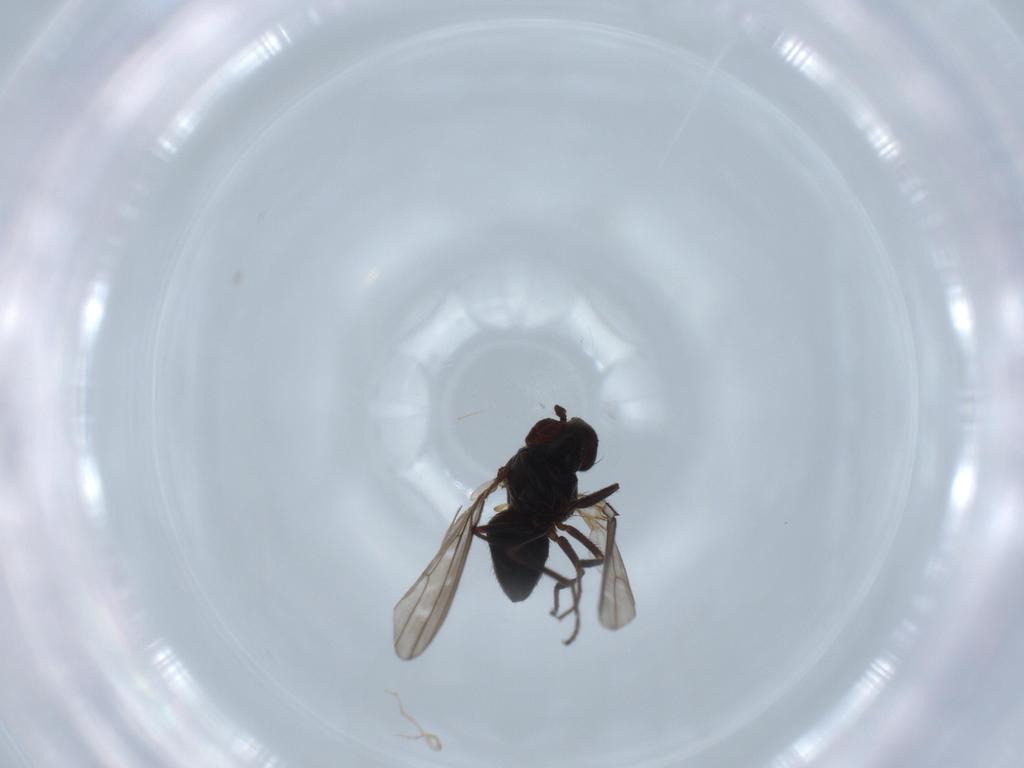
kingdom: Animalia
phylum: Arthropoda
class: Insecta
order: Diptera
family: Ephydridae
